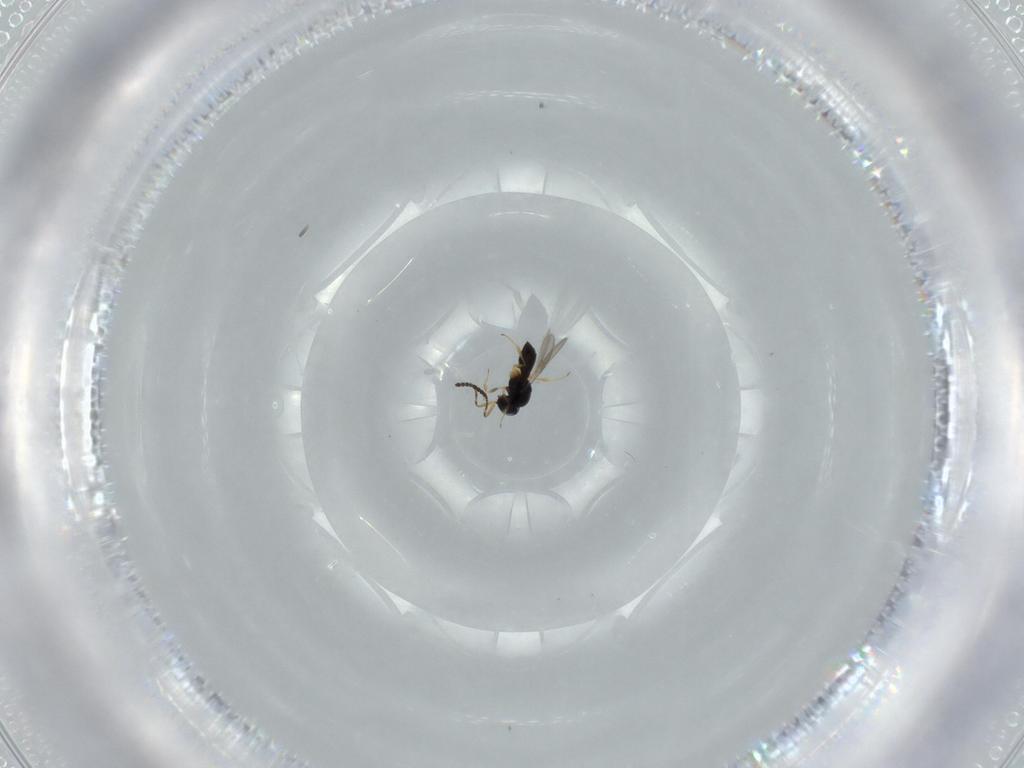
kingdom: Animalia
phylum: Arthropoda
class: Insecta
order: Hymenoptera
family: Scelionidae
